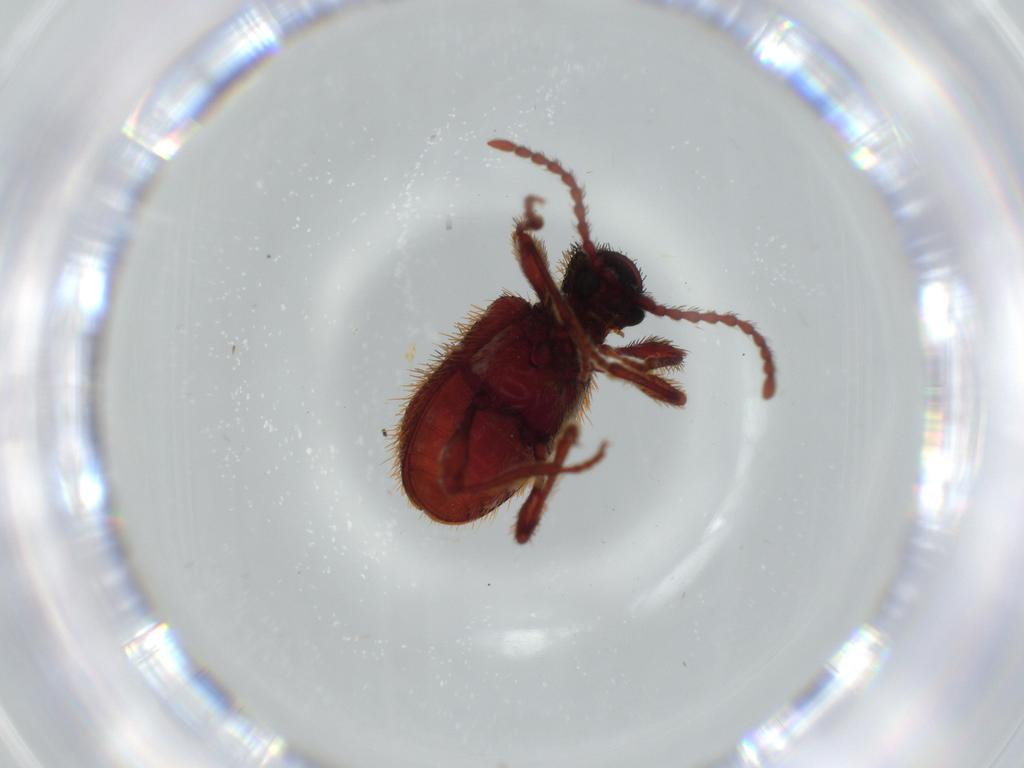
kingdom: Animalia
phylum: Arthropoda
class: Insecta
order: Coleoptera
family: Ptinidae
